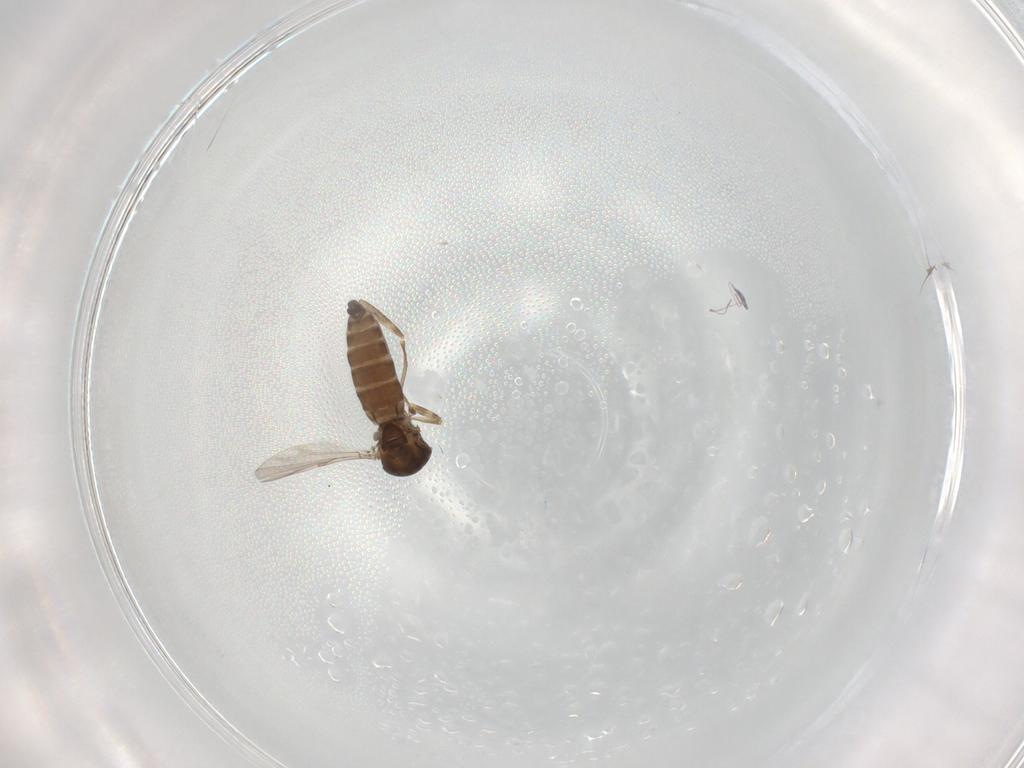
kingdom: Animalia
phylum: Arthropoda
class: Insecta
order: Diptera
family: Ceratopogonidae
